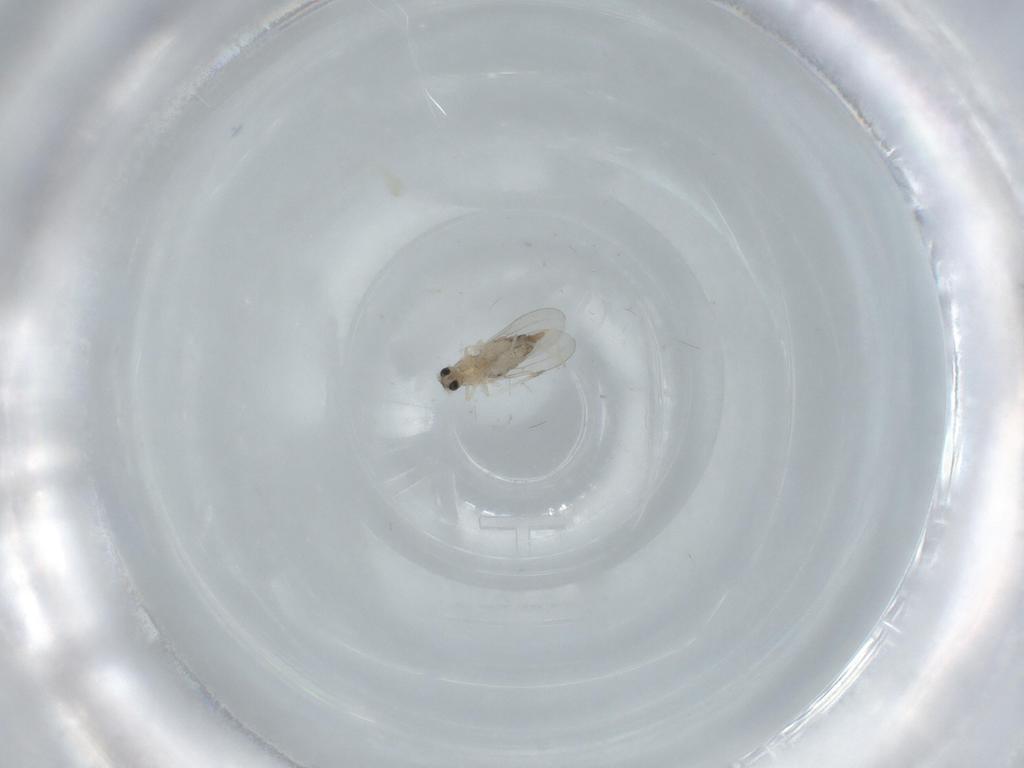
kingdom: Animalia
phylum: Arthropoda
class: Insecta
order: Diptera
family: Cecidomyiidae
